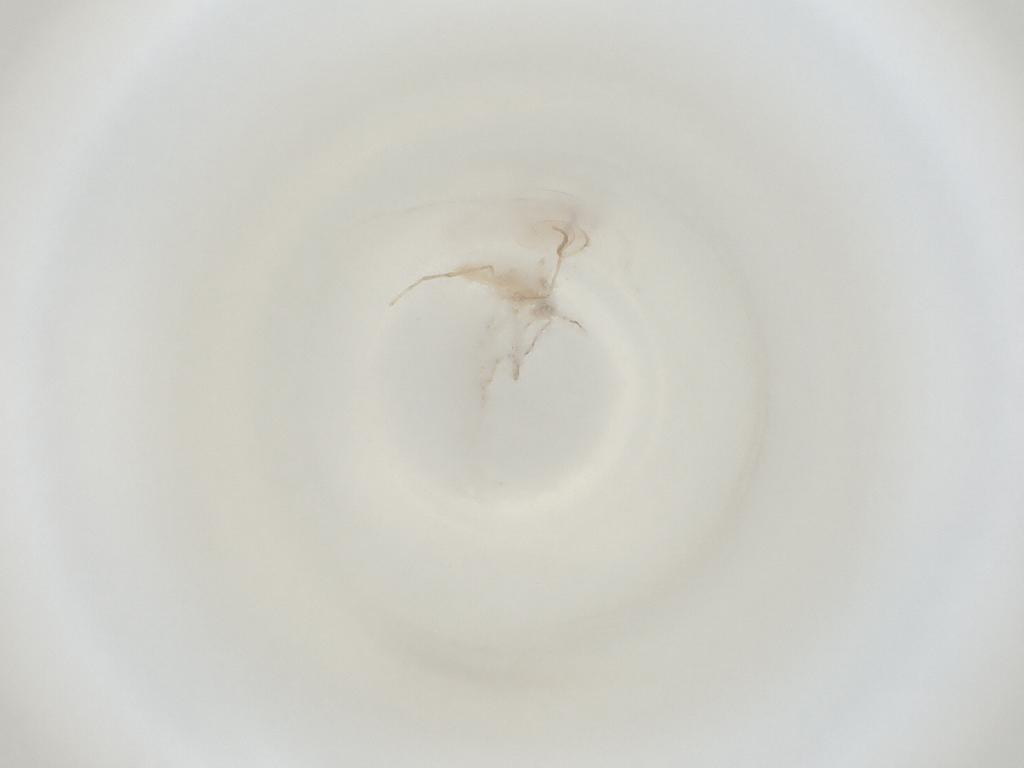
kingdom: Animalia
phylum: Arthropoda
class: Insecta
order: Diptera
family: Cecidomyiidae
